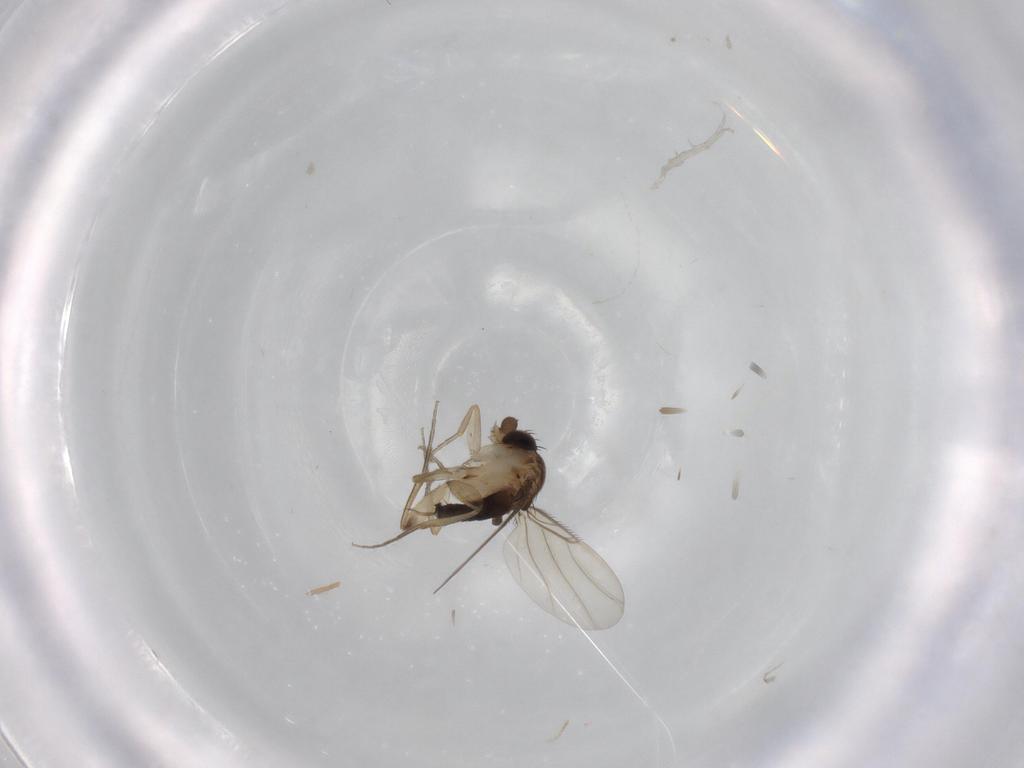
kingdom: Animalia
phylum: Arthropoda
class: Insecta
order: Diptera
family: Phoridae
